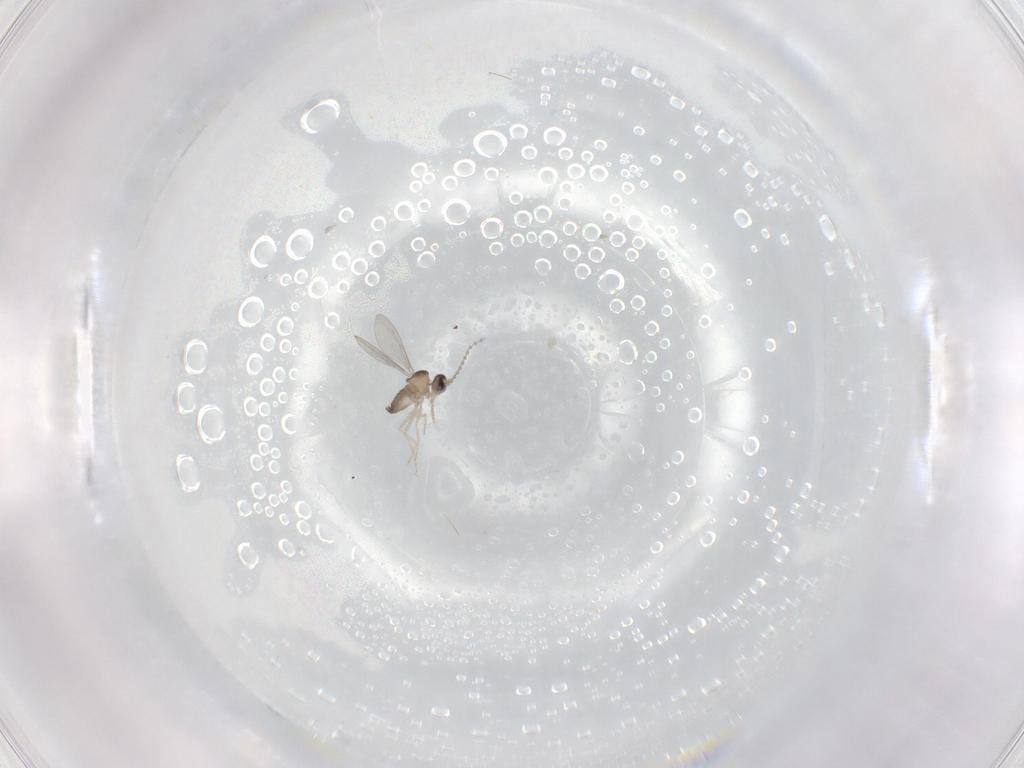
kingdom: Animalia
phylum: Arthropoda
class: Insecta
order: Diptera
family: Cecidomyiidae
